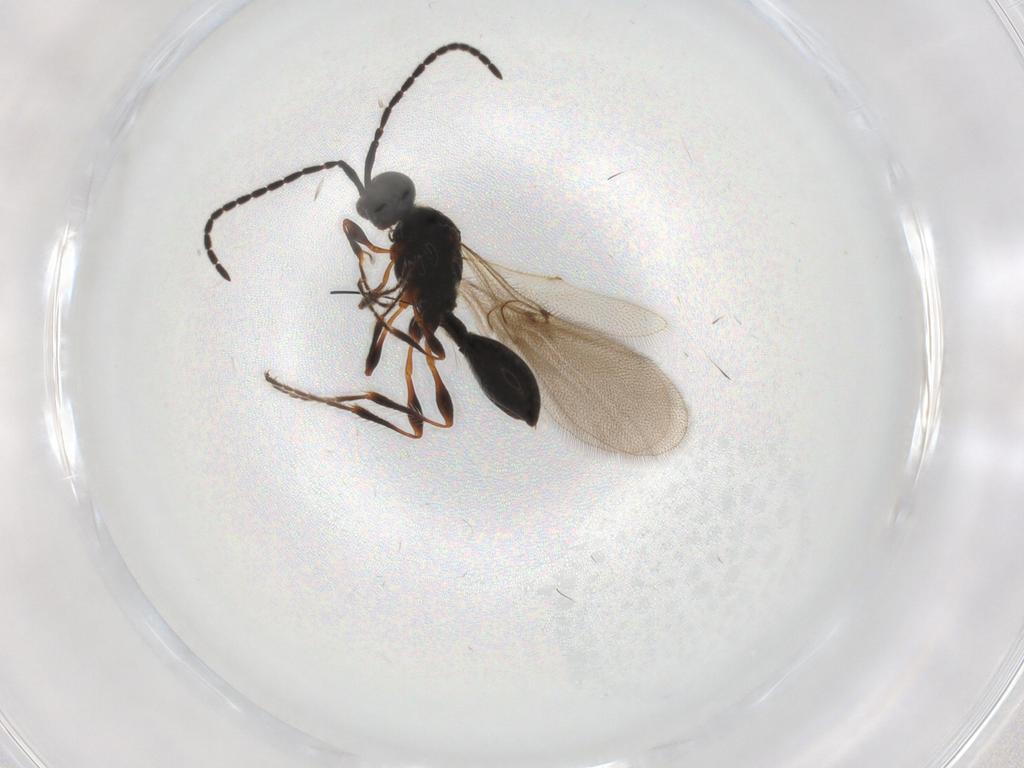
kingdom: Animalia
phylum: Arthropoda
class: Insecta
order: Hymenoptera
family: Diapriidae
